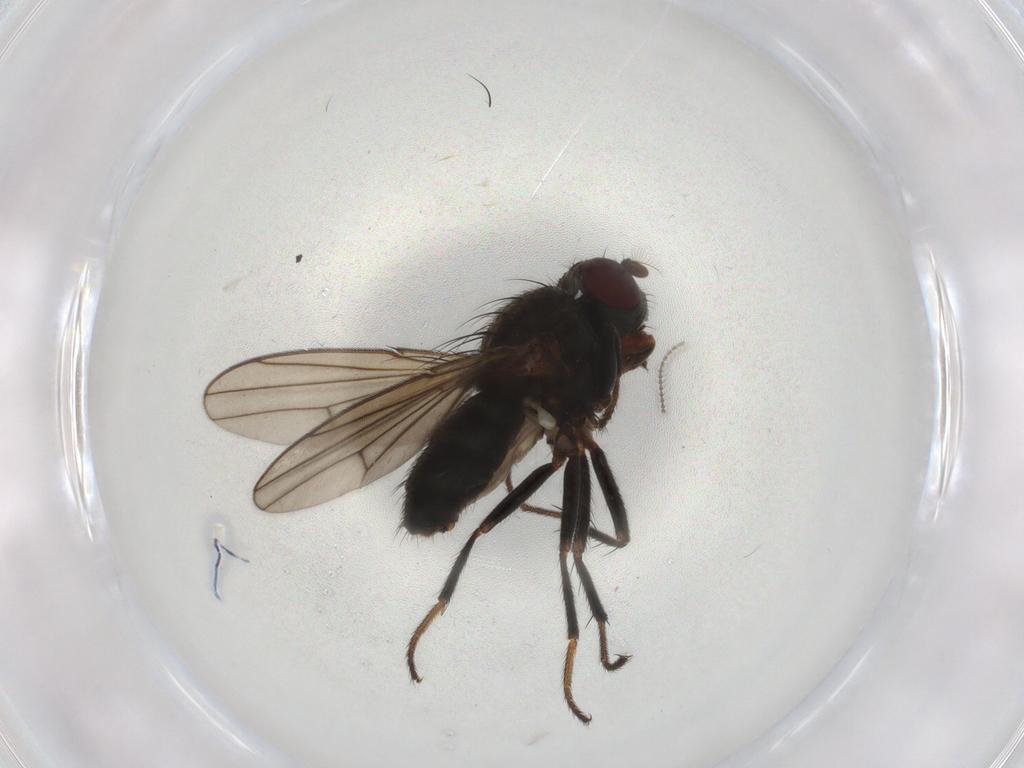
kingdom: Animalia
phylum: Arthropoda
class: Insecta
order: Diptera
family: Ephydridae
